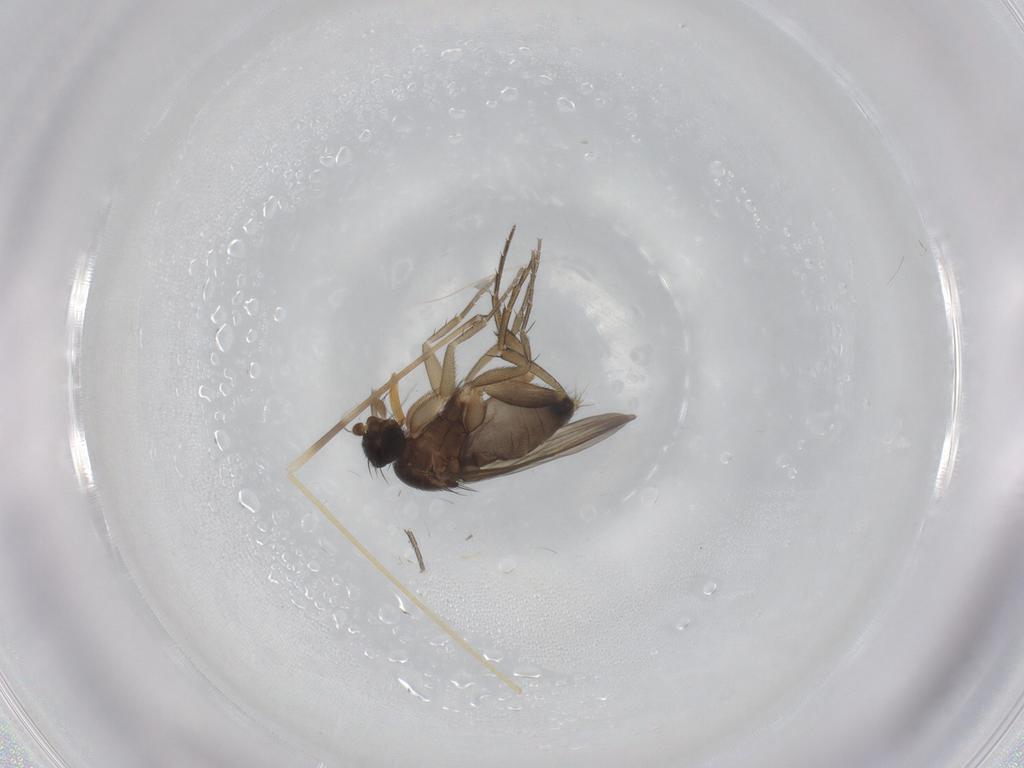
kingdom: Animalia
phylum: Arthropoda
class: Insecta
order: Diptera
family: Limoniidae
